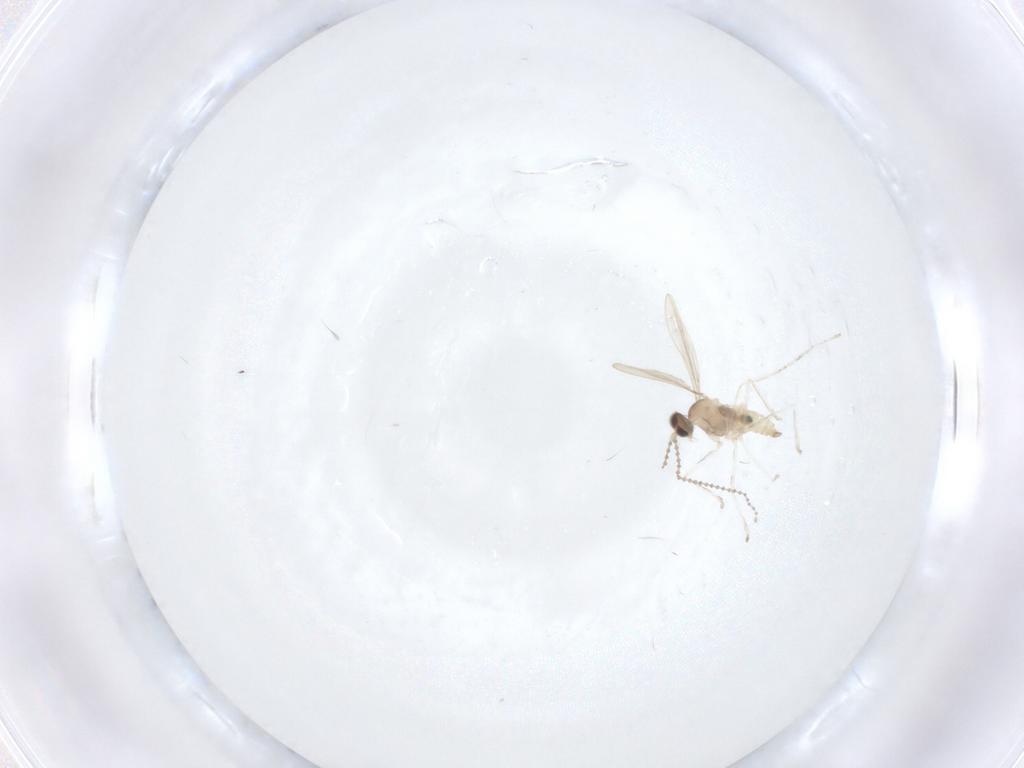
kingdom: Animalia
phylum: Arthropoda
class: Insecta
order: Diptera
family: Cecidomyiidae
